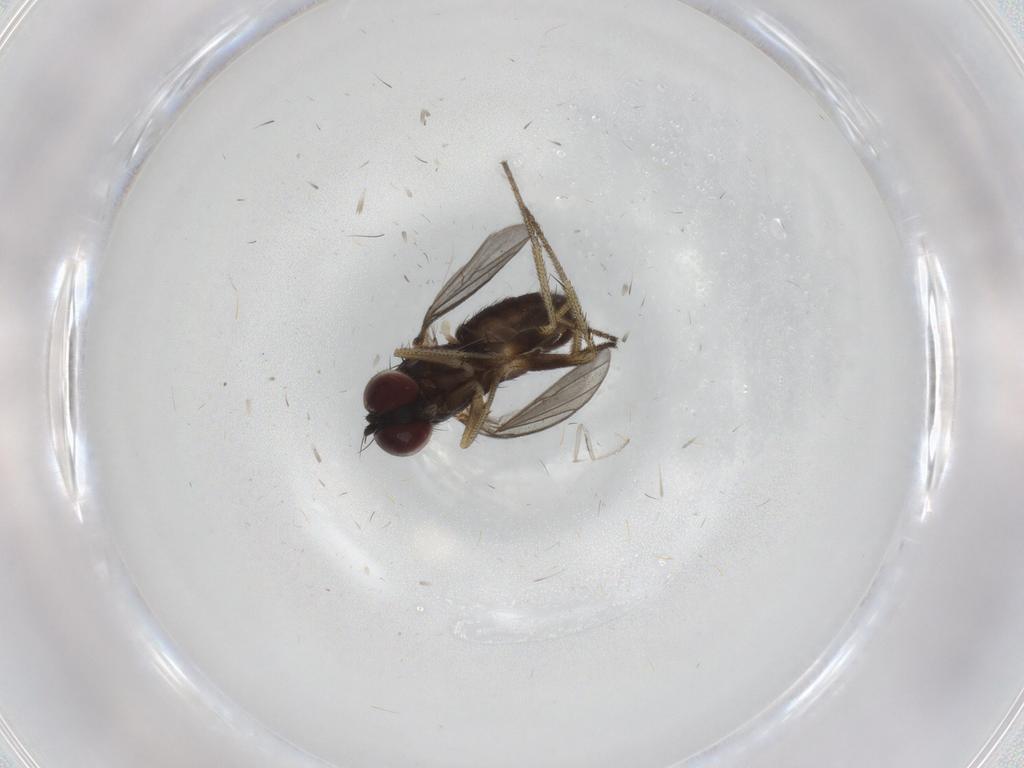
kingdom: Animalia
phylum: Arthropoda
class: Insecta
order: Diptera
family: Dolichopodidae
